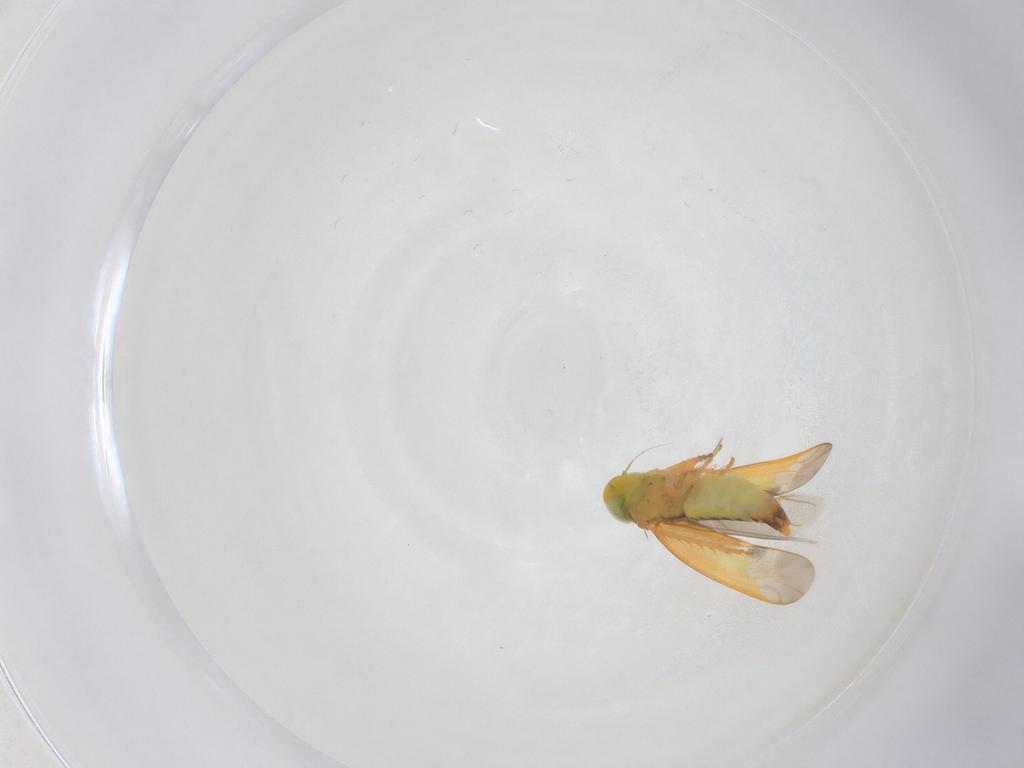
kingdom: Animalia
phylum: Arthropoda
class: Insecta
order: Hemiptera
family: Cicadellidae
